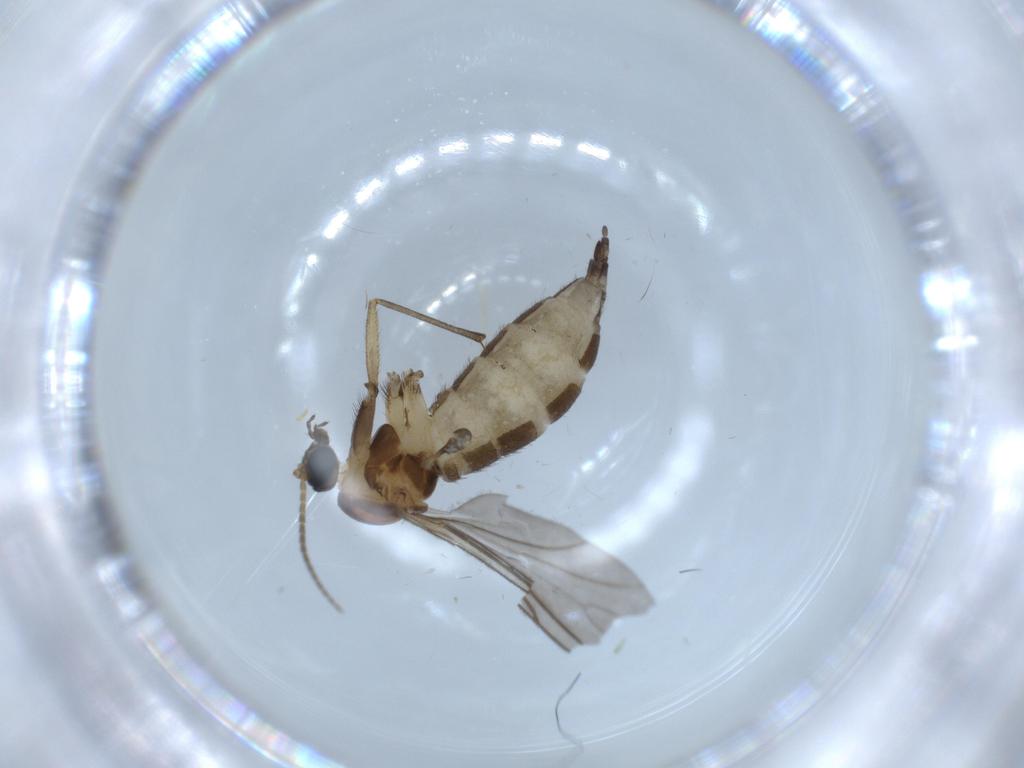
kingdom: Animalia
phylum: Arthropoda
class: Insecta
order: Diptera
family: Sciaridae
